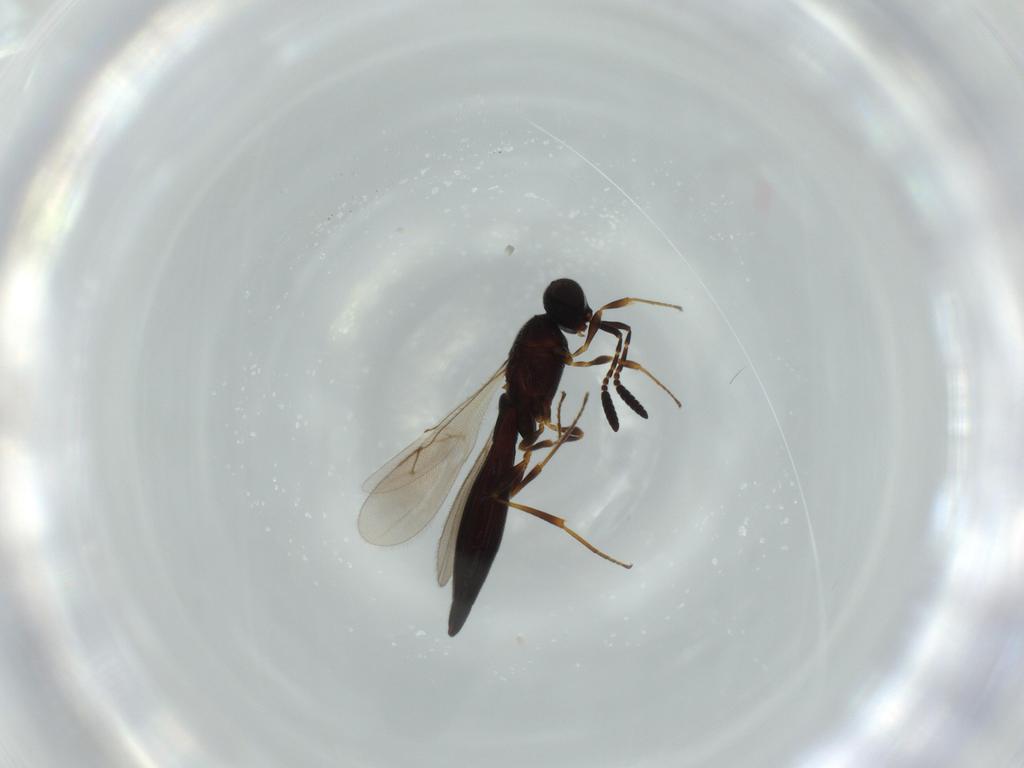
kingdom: Animalia
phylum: Arthropoda
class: Insecta
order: Hymenoptera
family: Scelionidae
